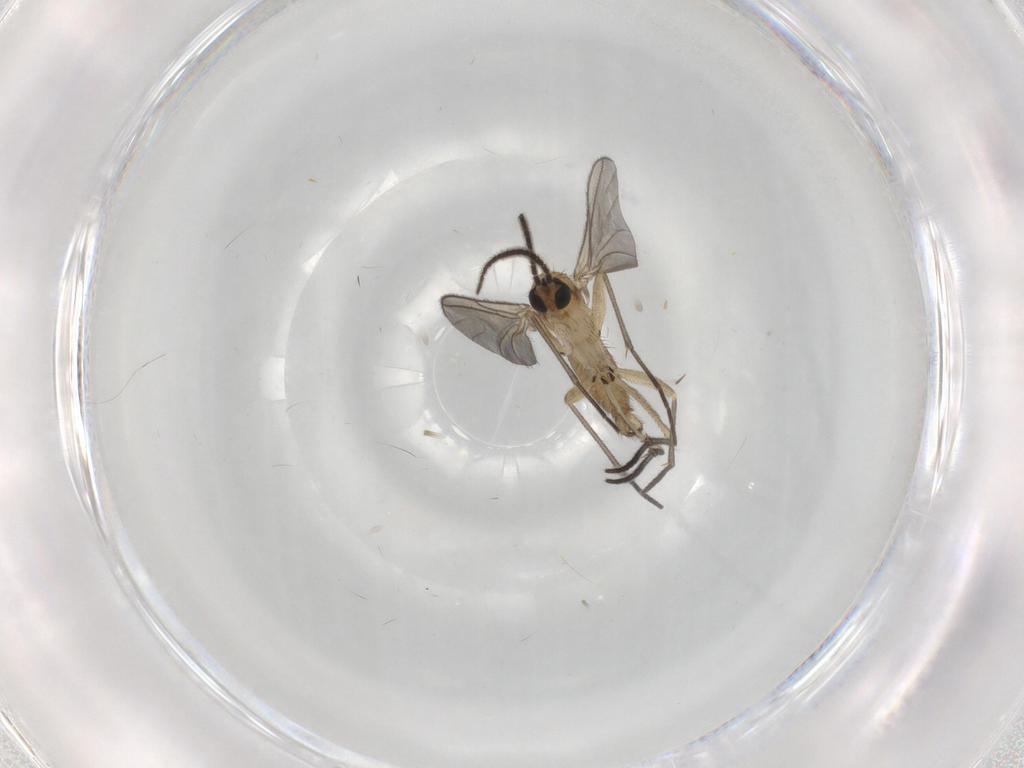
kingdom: Animalia
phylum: Arthropoda
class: Insecta
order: Diptera
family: Sciaridae
